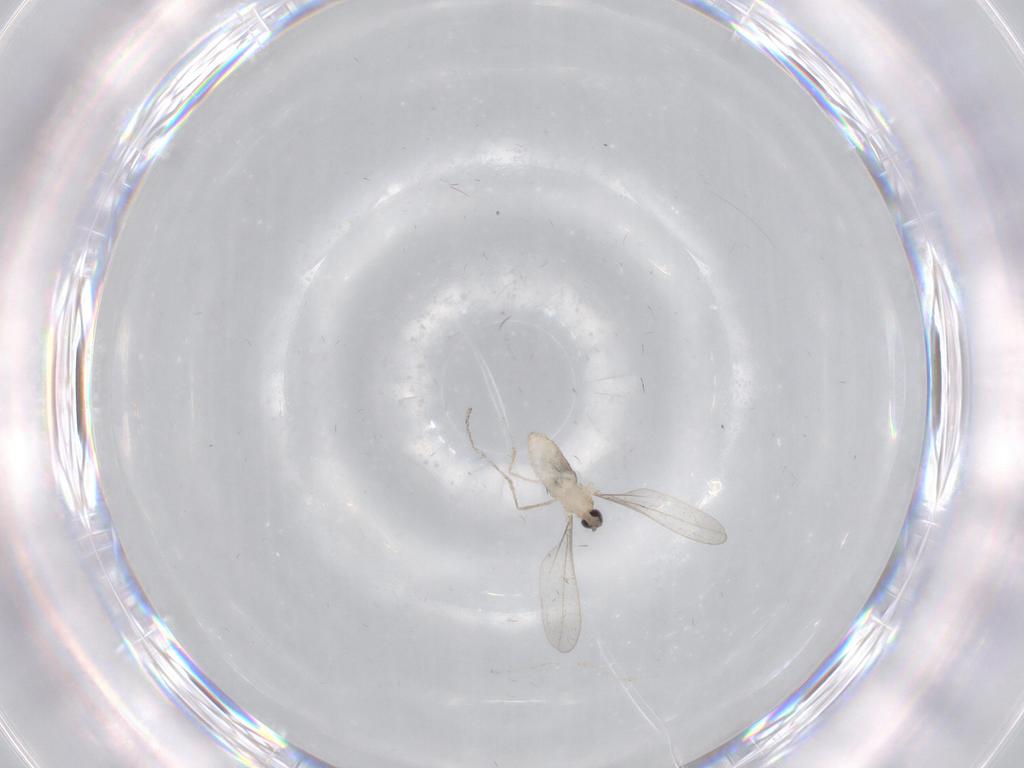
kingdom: Animalia
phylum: Arthropoda
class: Insecta
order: Diptera
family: Cecidomyiidae
